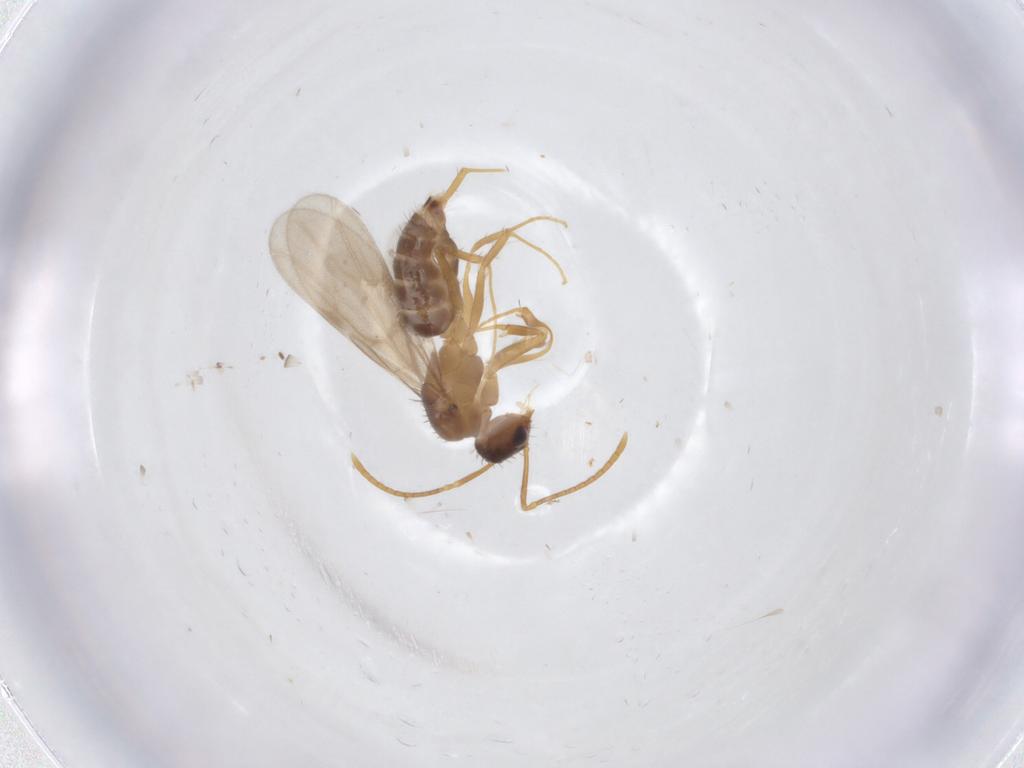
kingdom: Animalia
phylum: Arthropoda
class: Insecta
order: Hymenoptera
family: Formicidae
